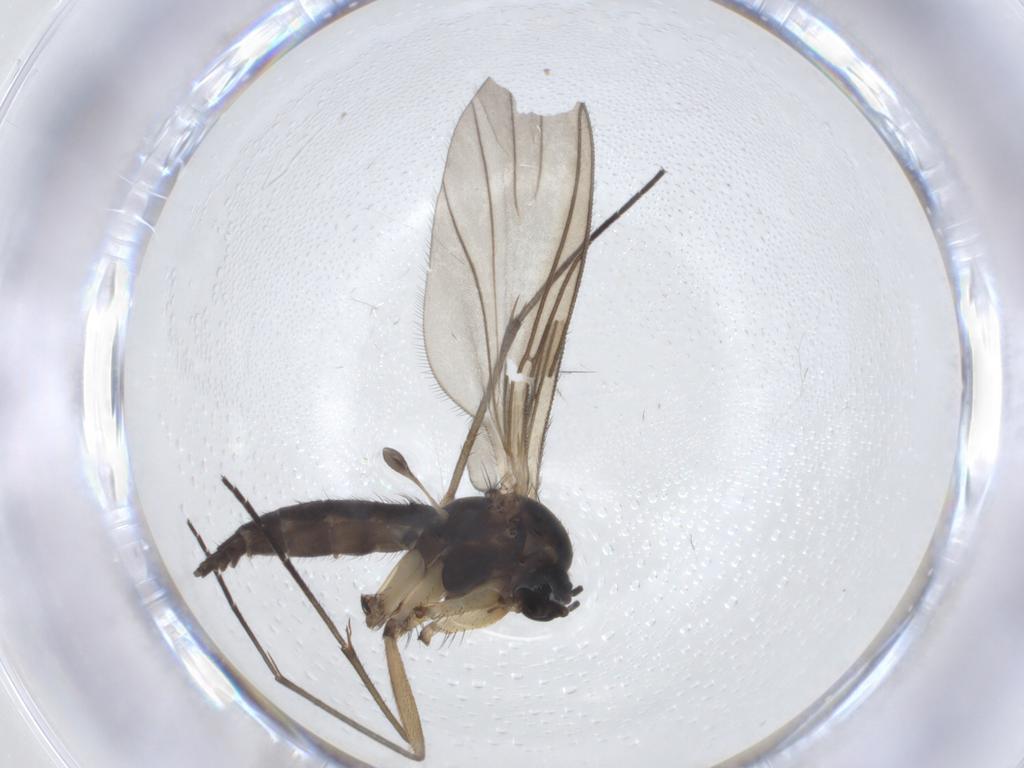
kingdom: Animalia
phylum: Arthropoda
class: Insecta
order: Diptera
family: Sciaridae
